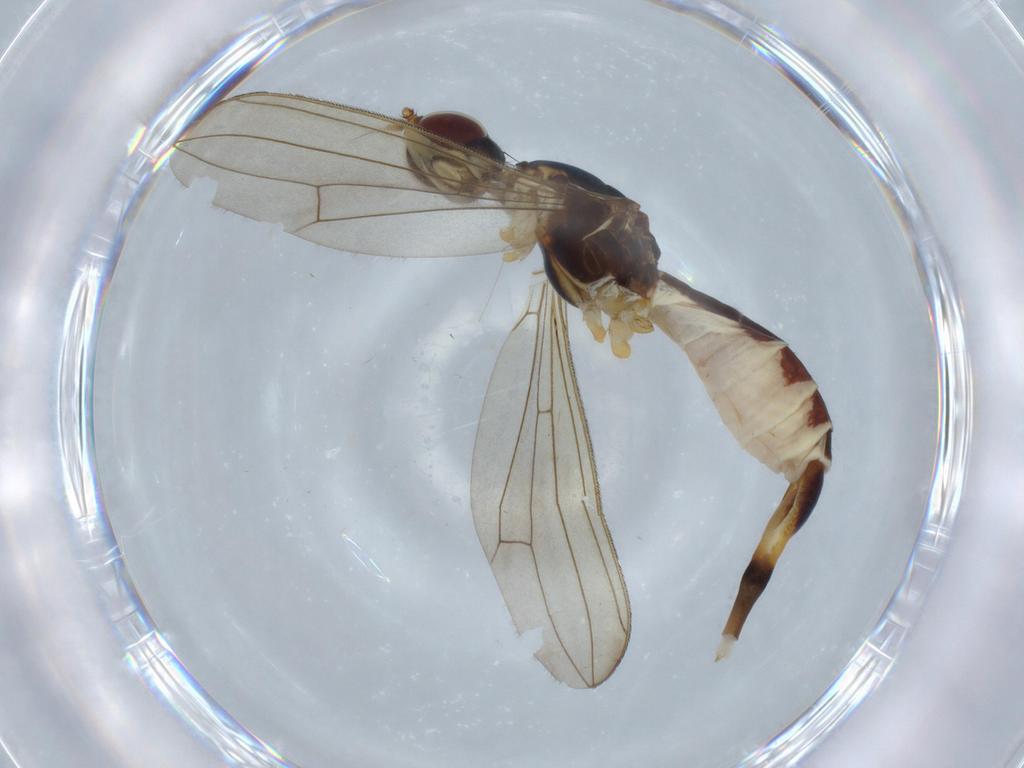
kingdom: Animalia
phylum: Arthropoda
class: Insecta
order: Diptera
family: Micropezidae
